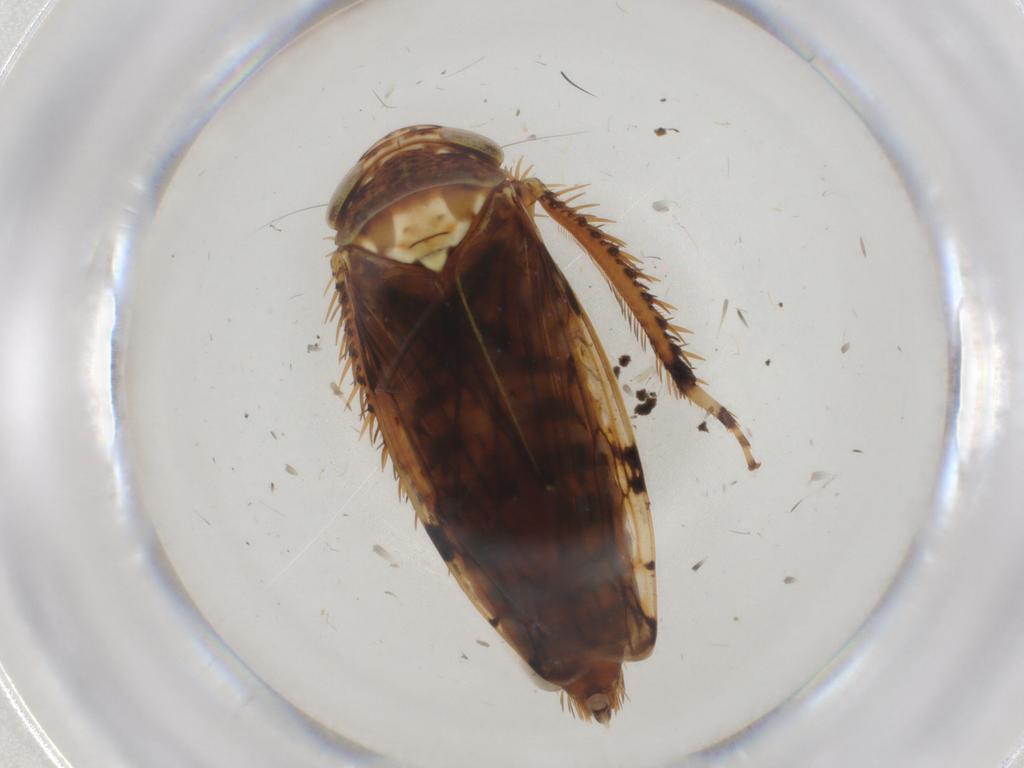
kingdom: Animalia
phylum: Arthropoda
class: Insecta
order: Hemiptera
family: Cicadellidae
